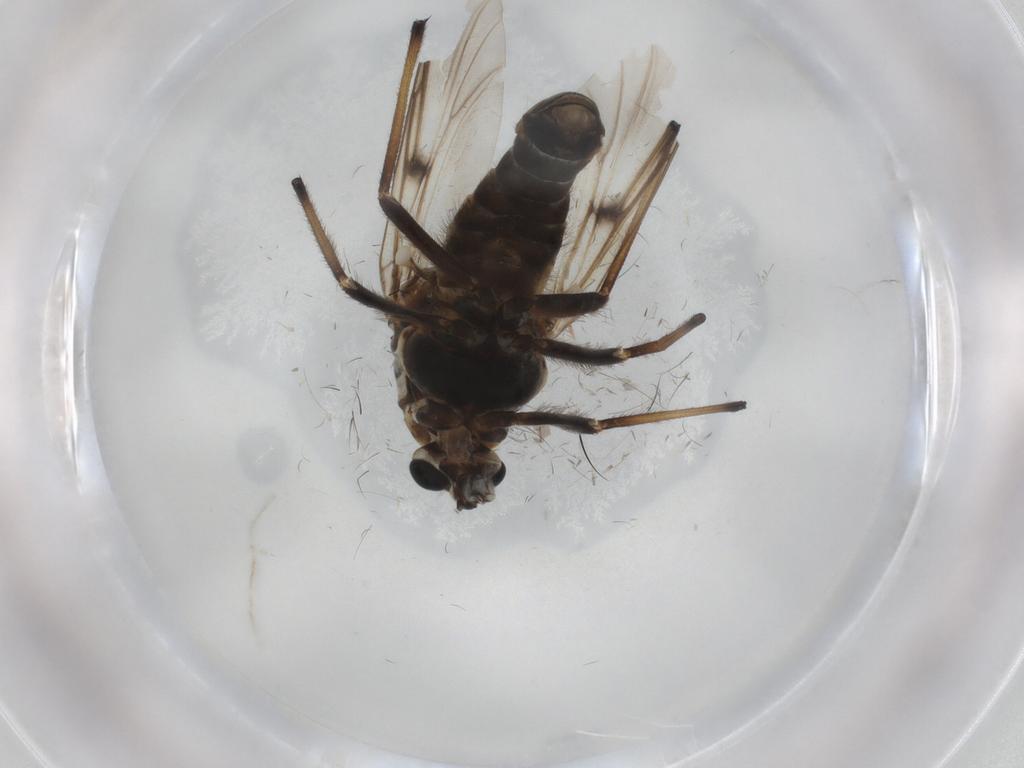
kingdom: Animalia
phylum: Arthropoda
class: Insecta
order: Diptera
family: Chironomidae
